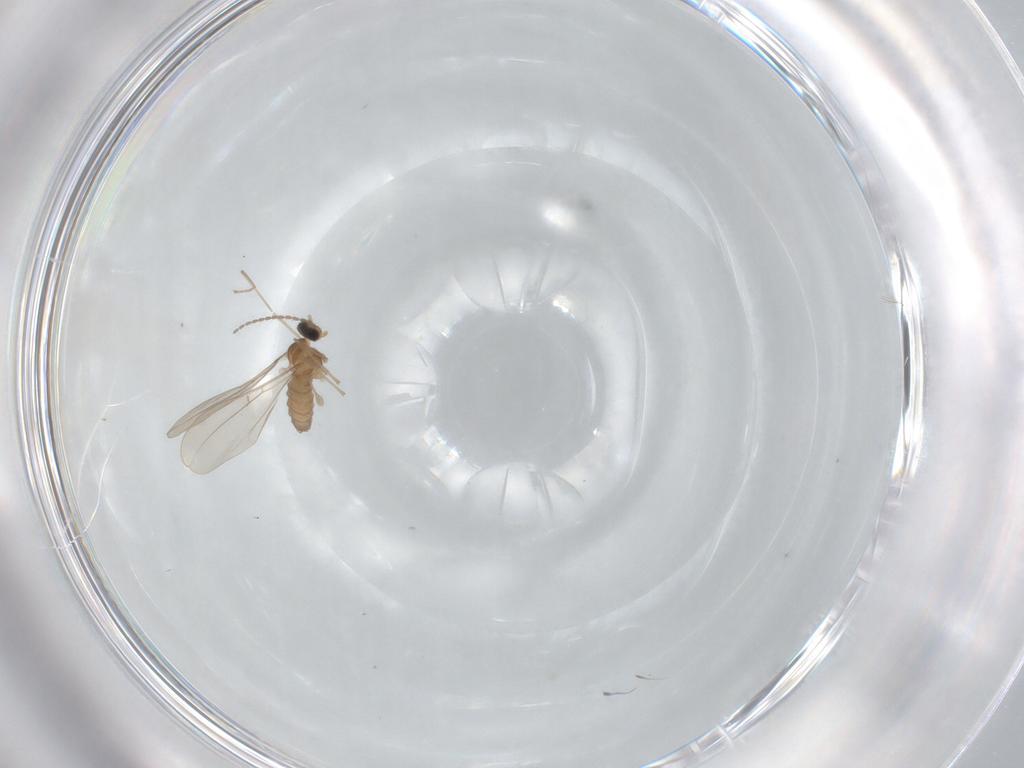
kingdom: Animalia
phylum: Arthropoda
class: Insecta
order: Diptera
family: Cecidomyiidae
